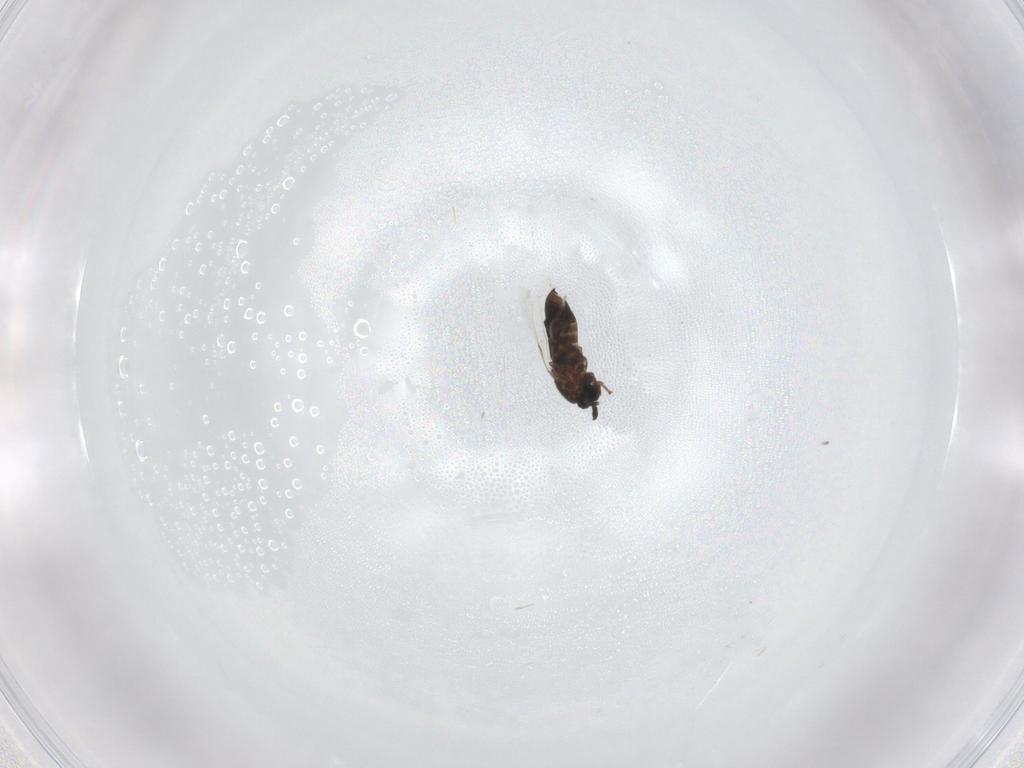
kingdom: Animalia
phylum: Arthropoda
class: Insecta
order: Diptera
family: Scatopsidae
